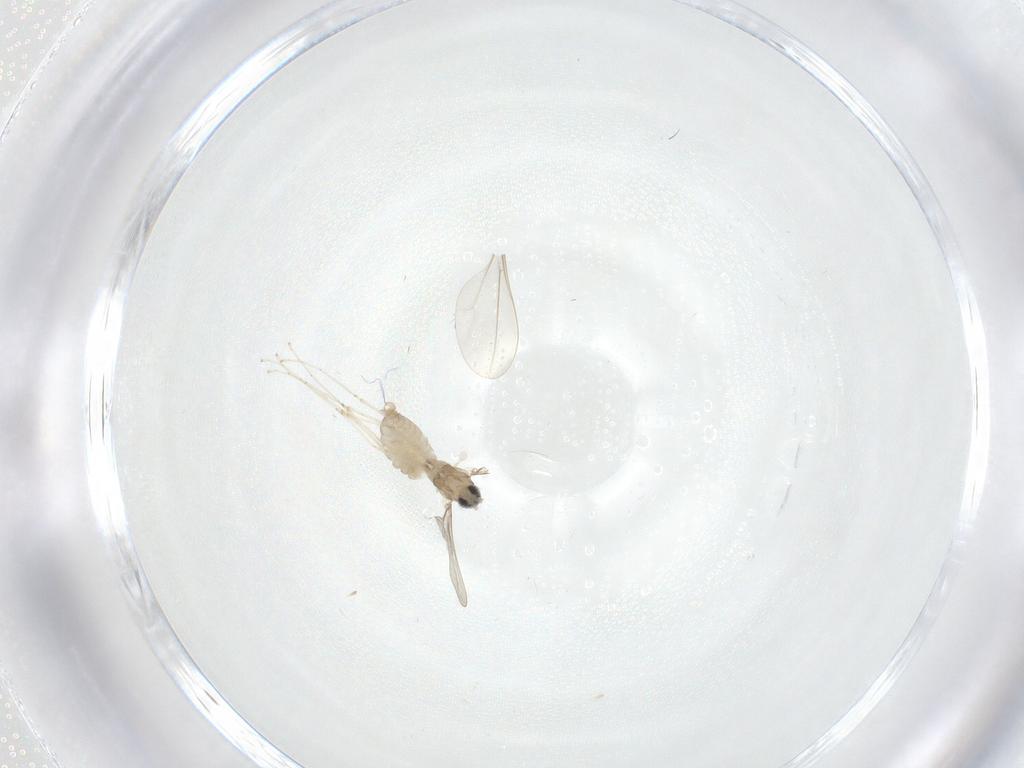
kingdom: Animalia
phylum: Arthropoda
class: Insecta
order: Diptera
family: Cecidomyiidae
